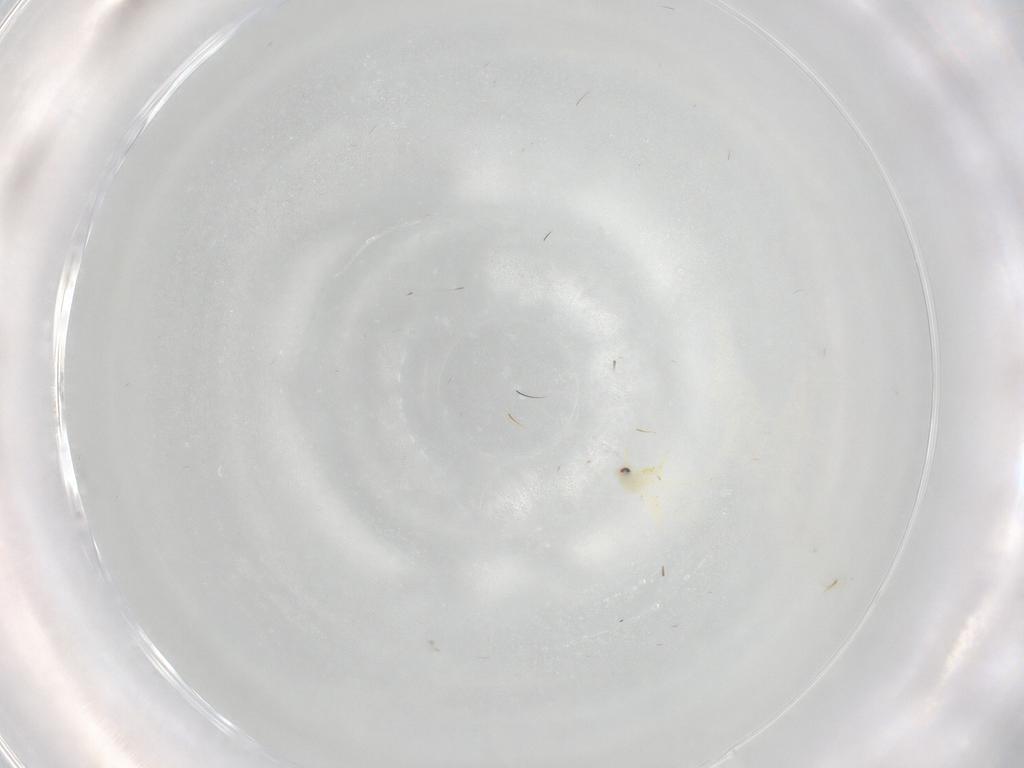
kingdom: Animalia
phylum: Arthropoda
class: Insecta
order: Hemiptera
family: Aleyrodidae
